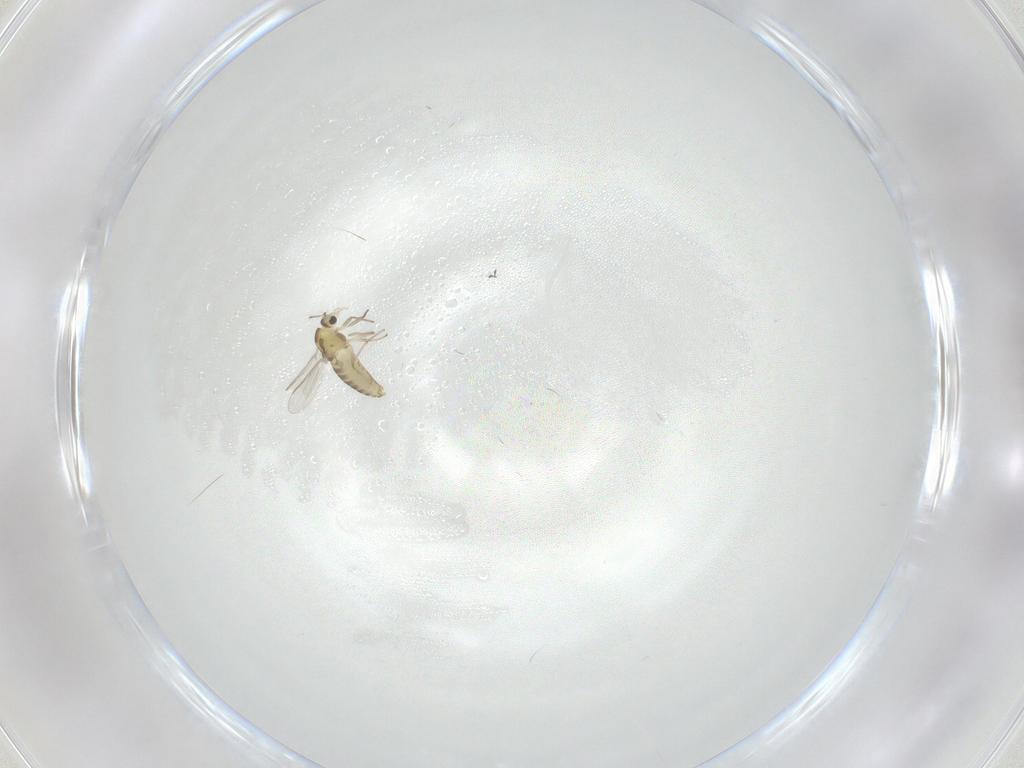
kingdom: Animalia
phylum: Arthropoda
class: Insecta
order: Diptera
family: Chironomidae
